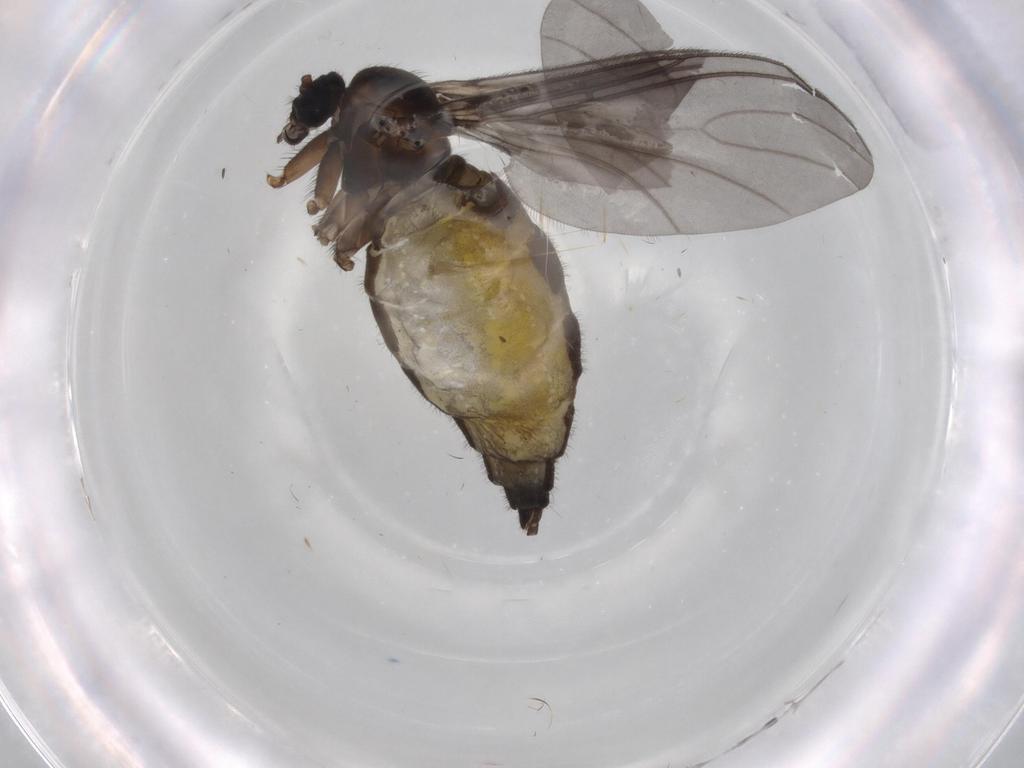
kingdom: Animalia
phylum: Arthropoda
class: Insecta
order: Diptera
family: Sciaridae
